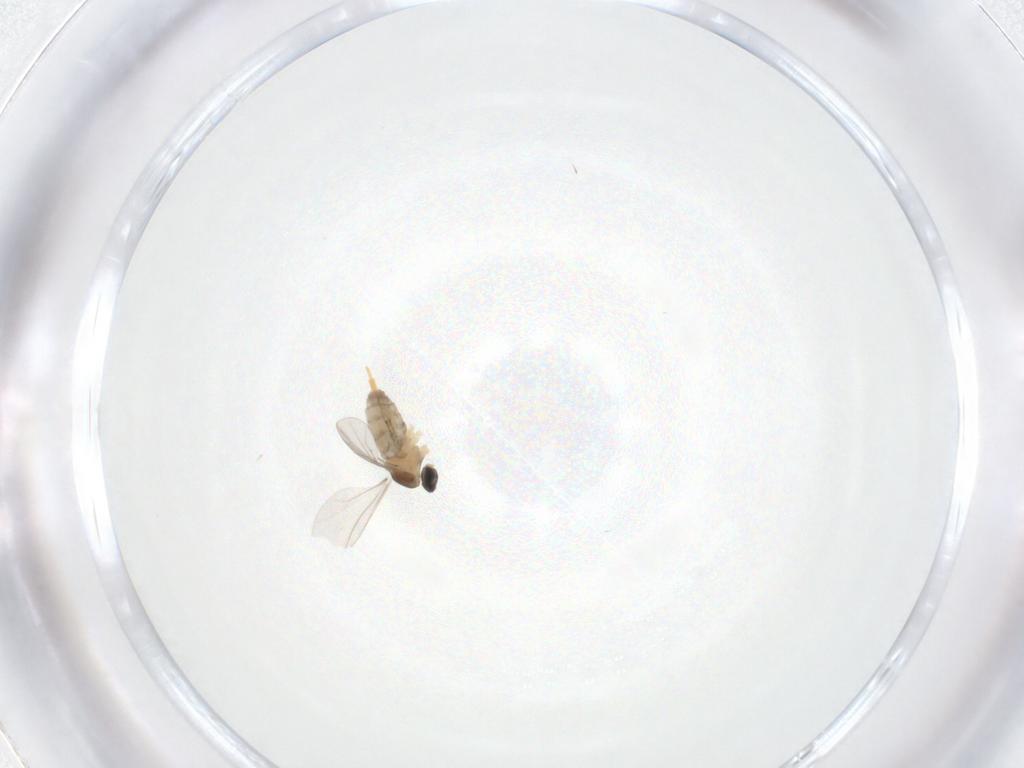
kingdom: Animalia
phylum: Arthropoda
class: Insecta
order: Diptera
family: Cecidomyiidae
